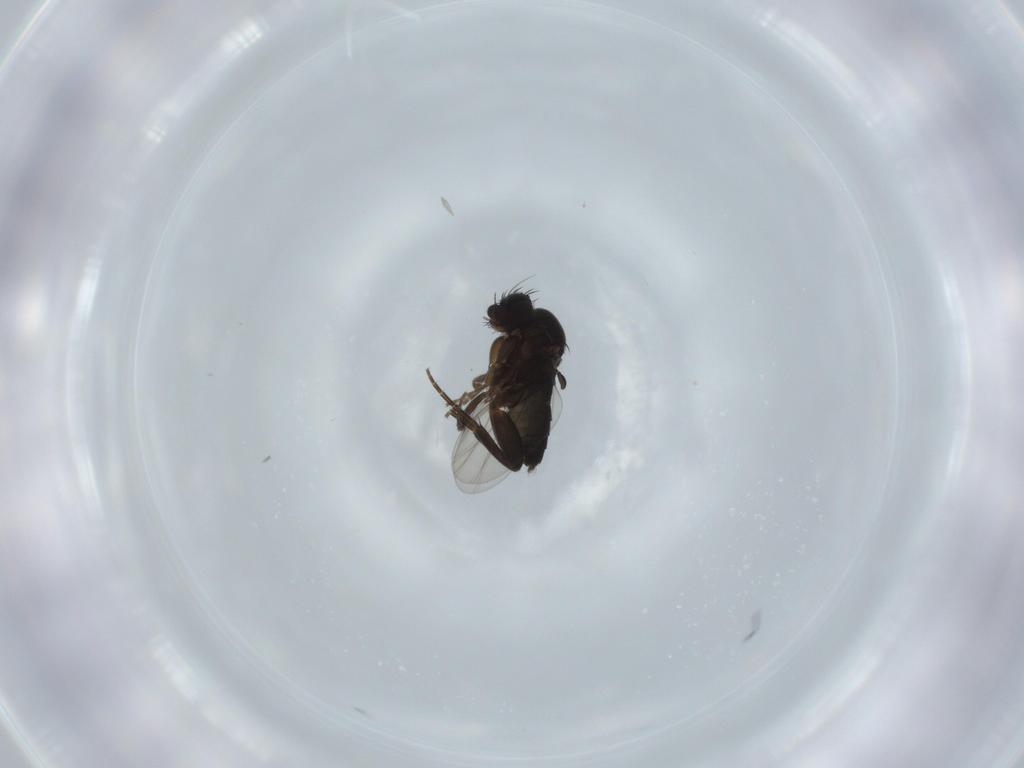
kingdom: Animalia
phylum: Arthropoda
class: Insecta
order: Diptera
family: Phoridae
